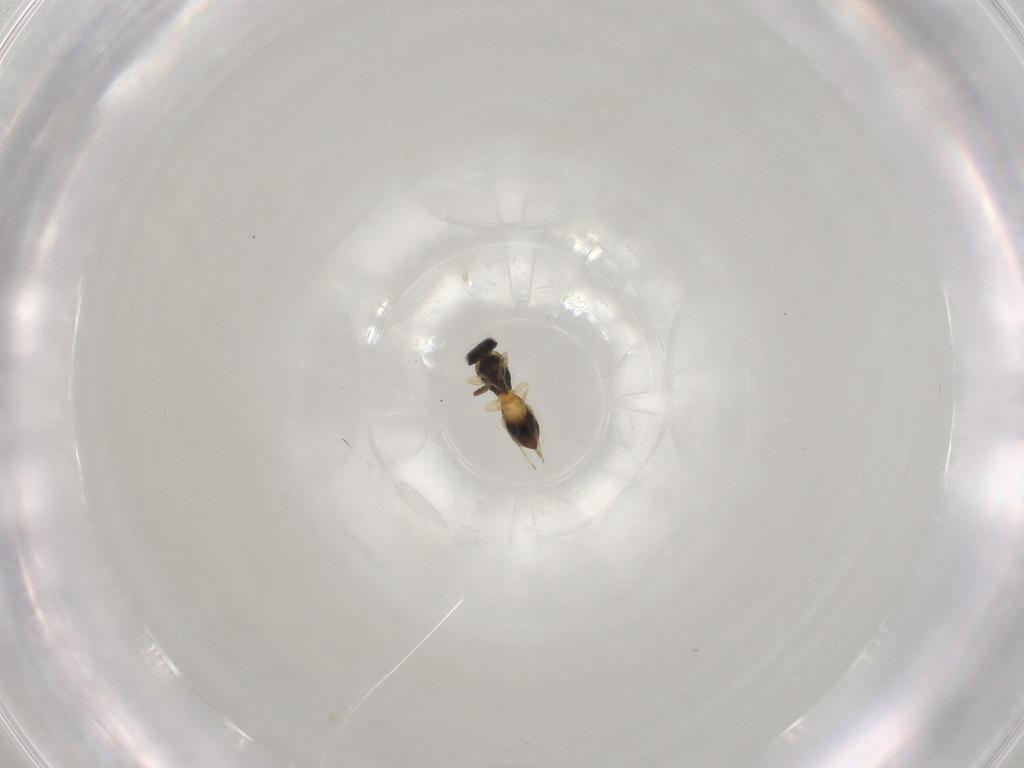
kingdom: Animalia
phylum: Arthropoda
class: Insecta
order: Hymenoptera
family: Scelionidae
